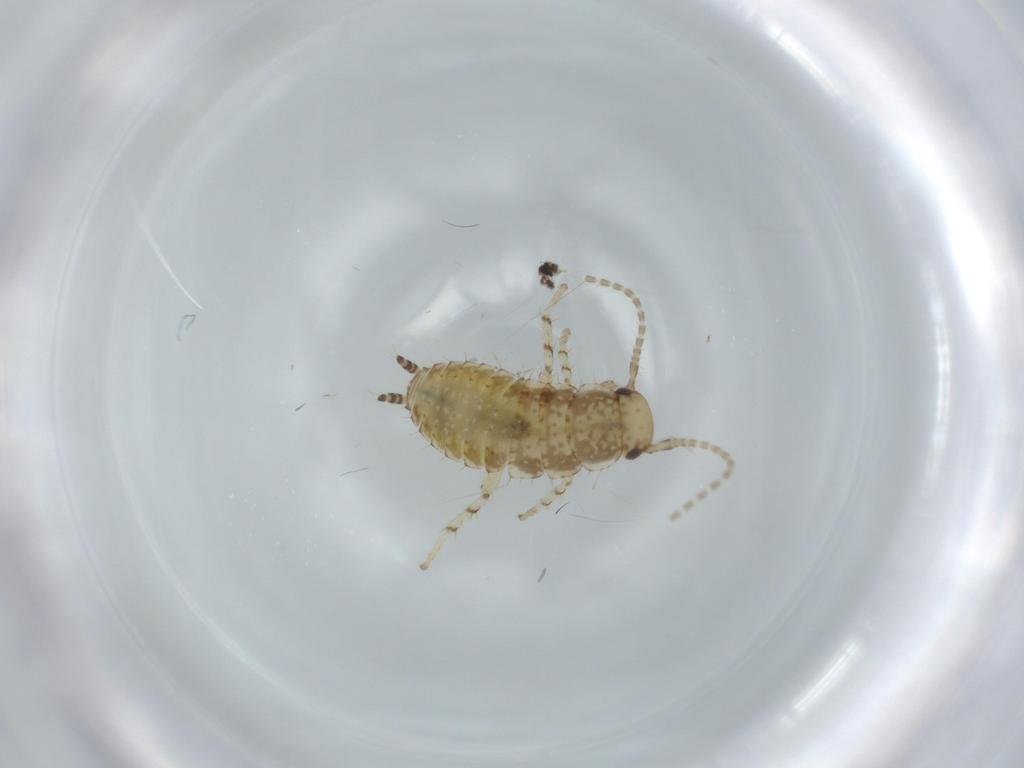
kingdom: Animalia
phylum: Arthropoda
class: Insecta
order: Blattodea
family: Ectobiidae
